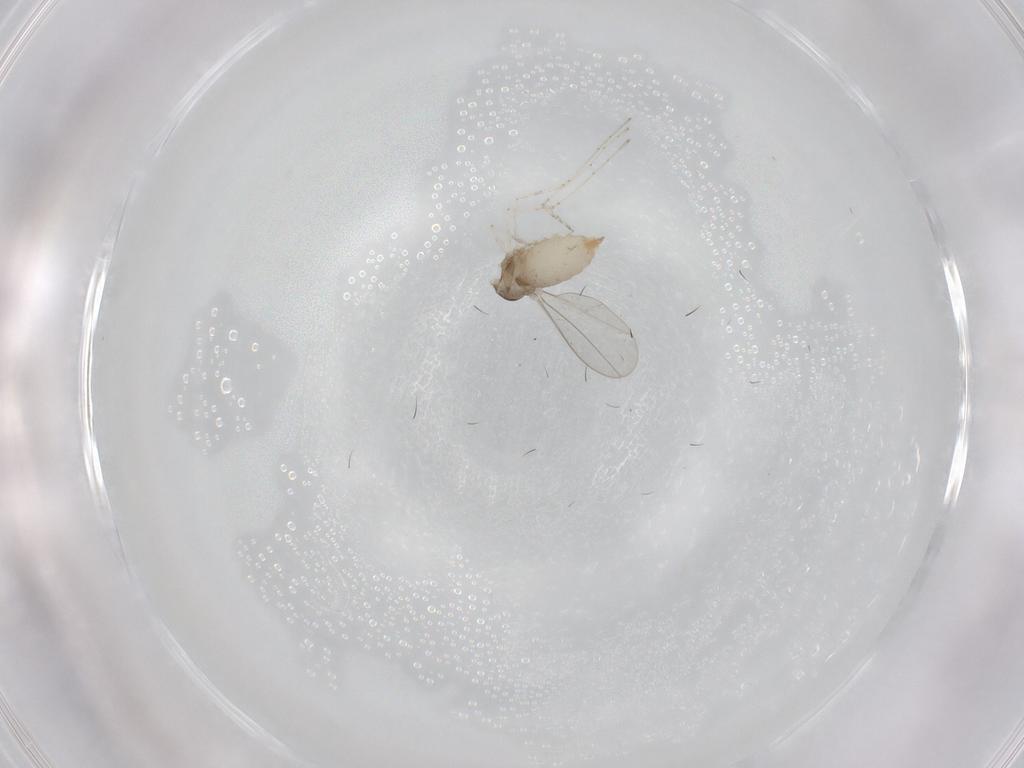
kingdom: Animalia
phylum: Arthropoda
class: Insecta
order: Diptera
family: Cecidomyiidae
